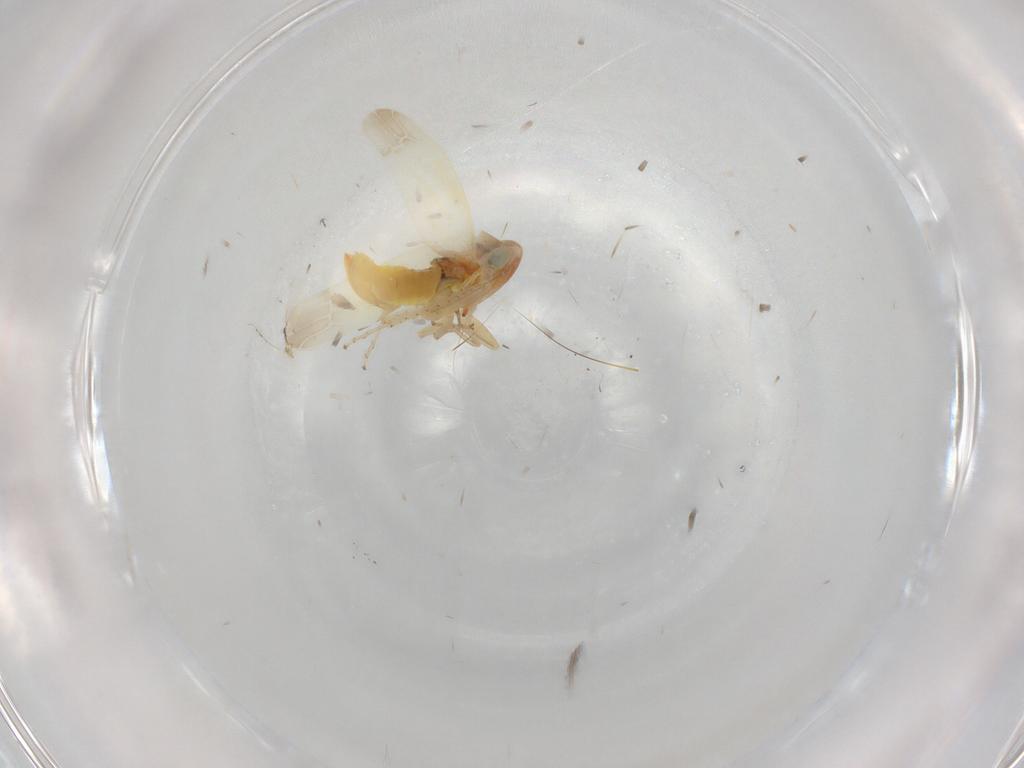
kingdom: Animalia
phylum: Arthropoda
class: Insecta
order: Hemiptera
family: Cicadellidae
